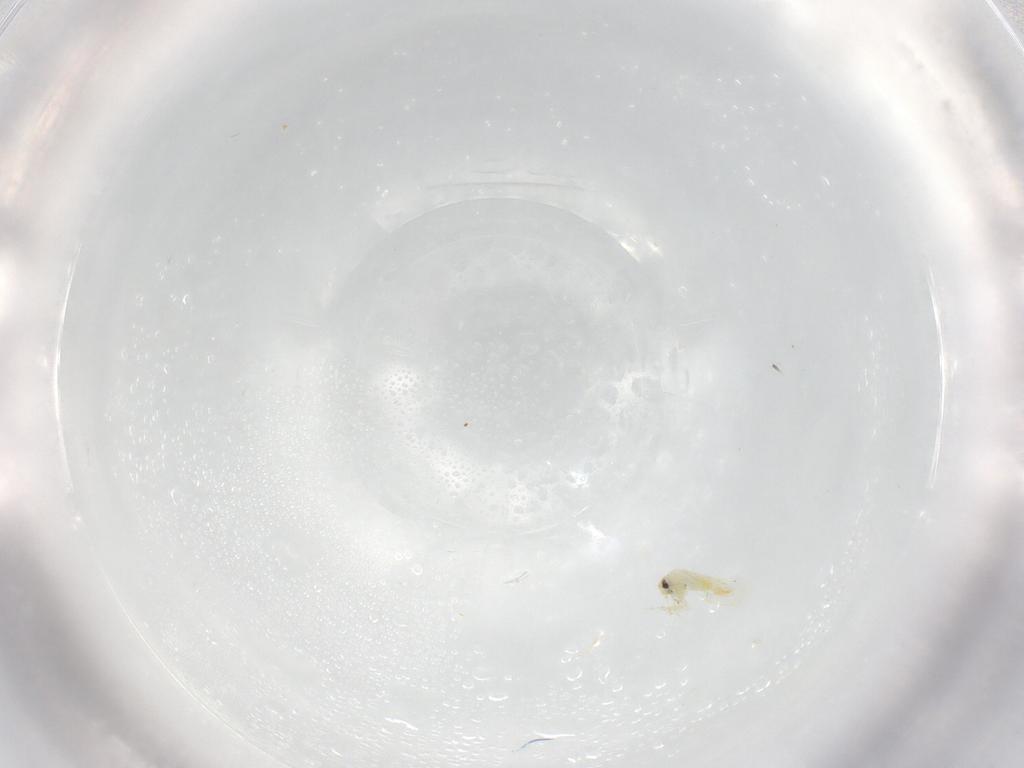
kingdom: Animalia
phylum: Arthropoda
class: Insecta
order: Hemiptera
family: Aleyrodidae
